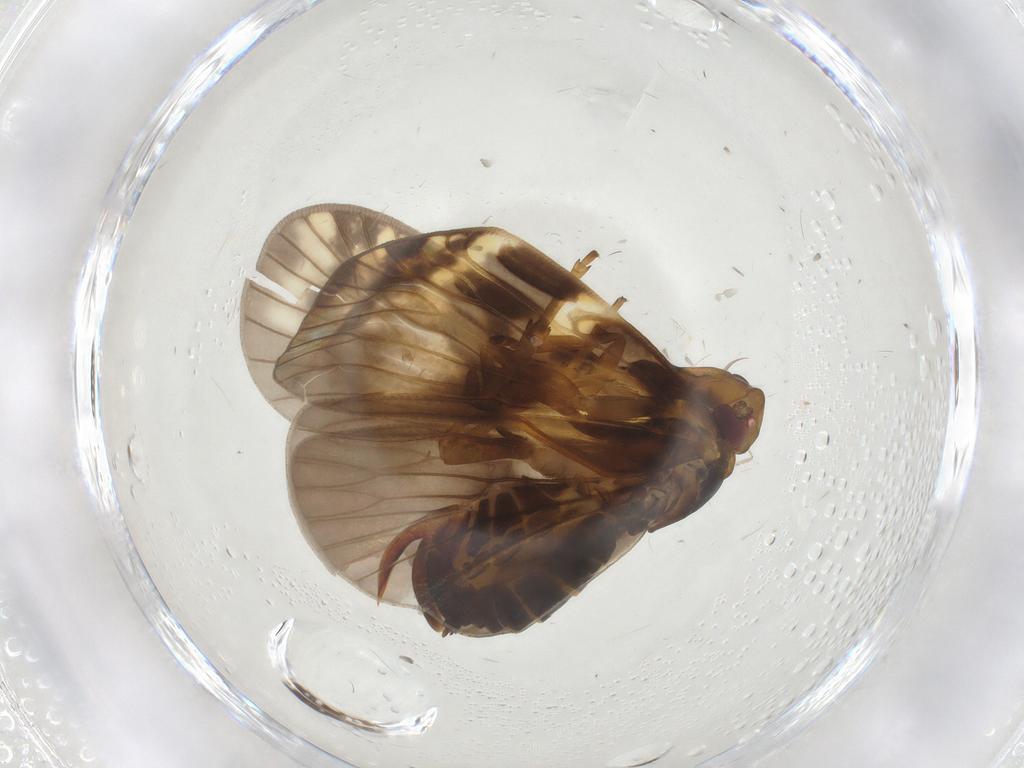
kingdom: Animalia
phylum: Arthropoda
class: Insecta
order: Hemiptera
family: Cixiidae
